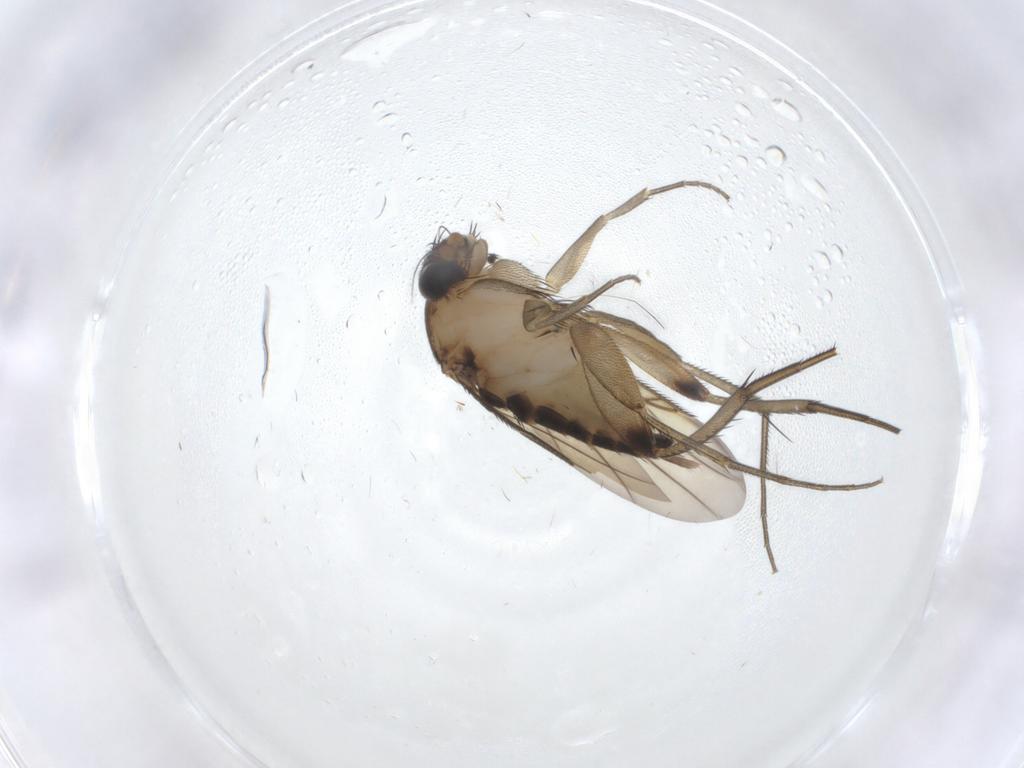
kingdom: Animalia
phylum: Arthropoda
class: Insecta
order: Diptera
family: Phoridae
